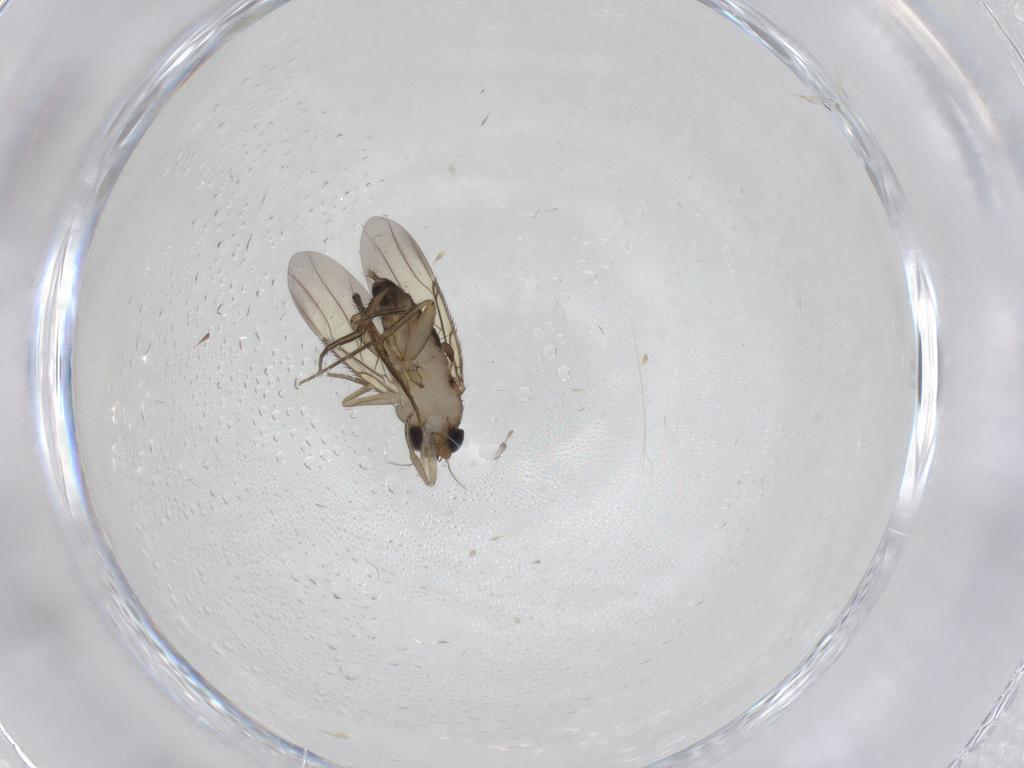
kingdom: Animalia
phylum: Arthropoda
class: Insecta
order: Diptera
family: Phoridae
